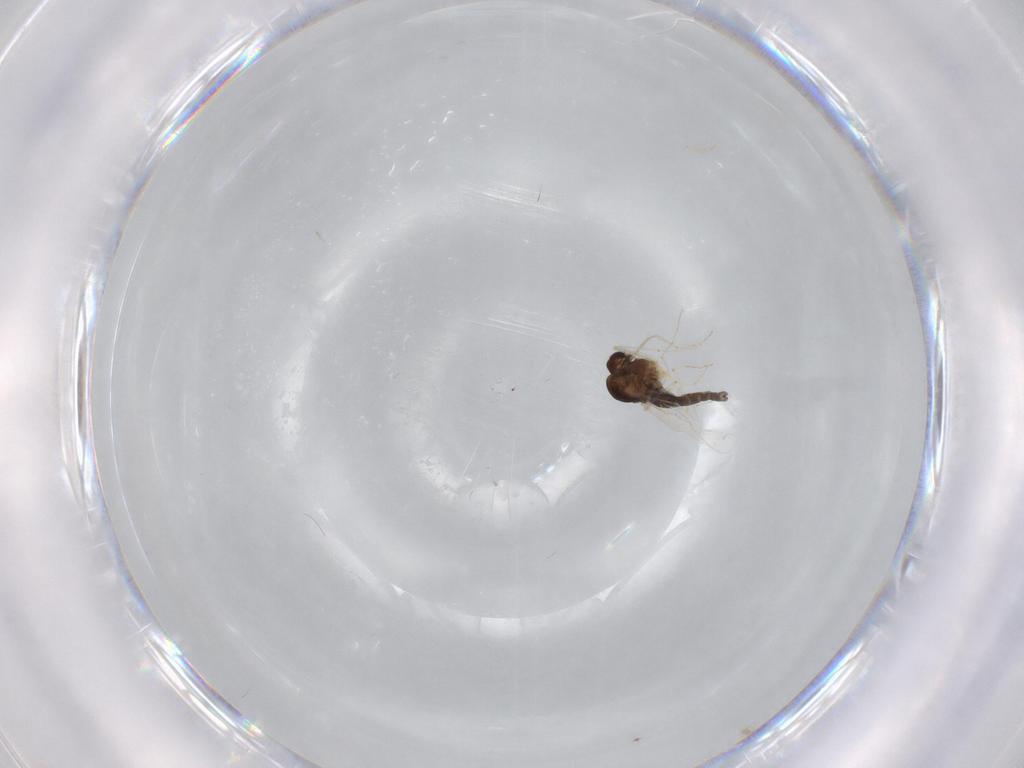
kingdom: Animalia
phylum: Arthropoda
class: Insecta
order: Diptera
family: Chironomidae
